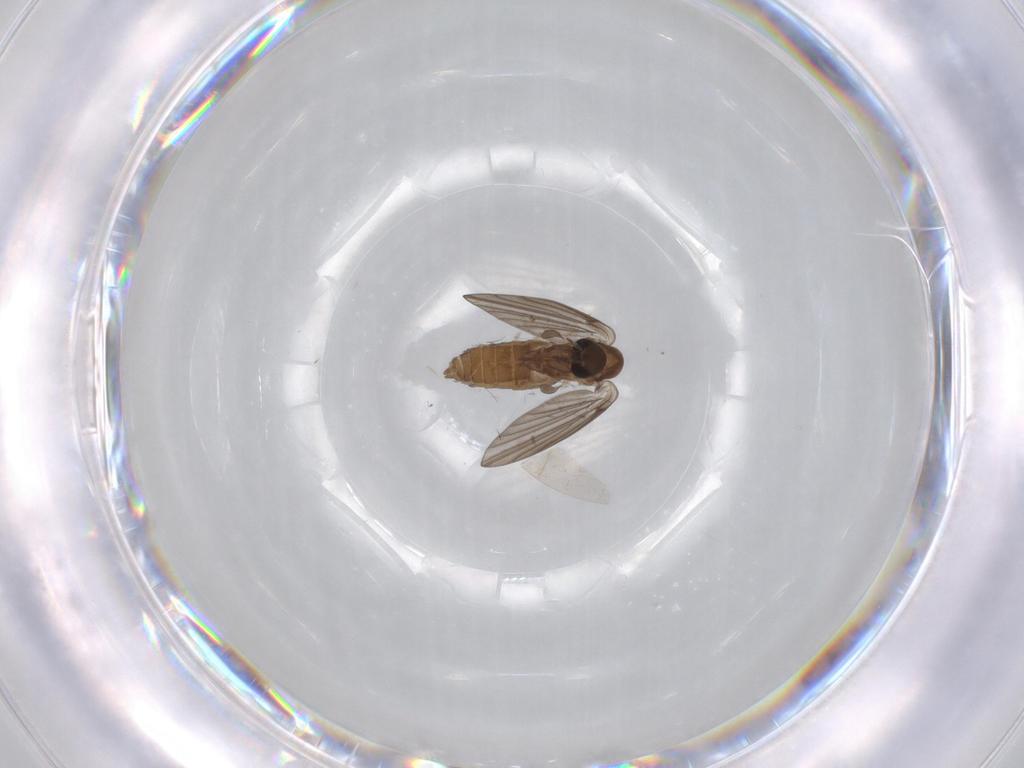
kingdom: Animalia
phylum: Arthropoda
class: Insecta
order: Diptera
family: Psychodidae
